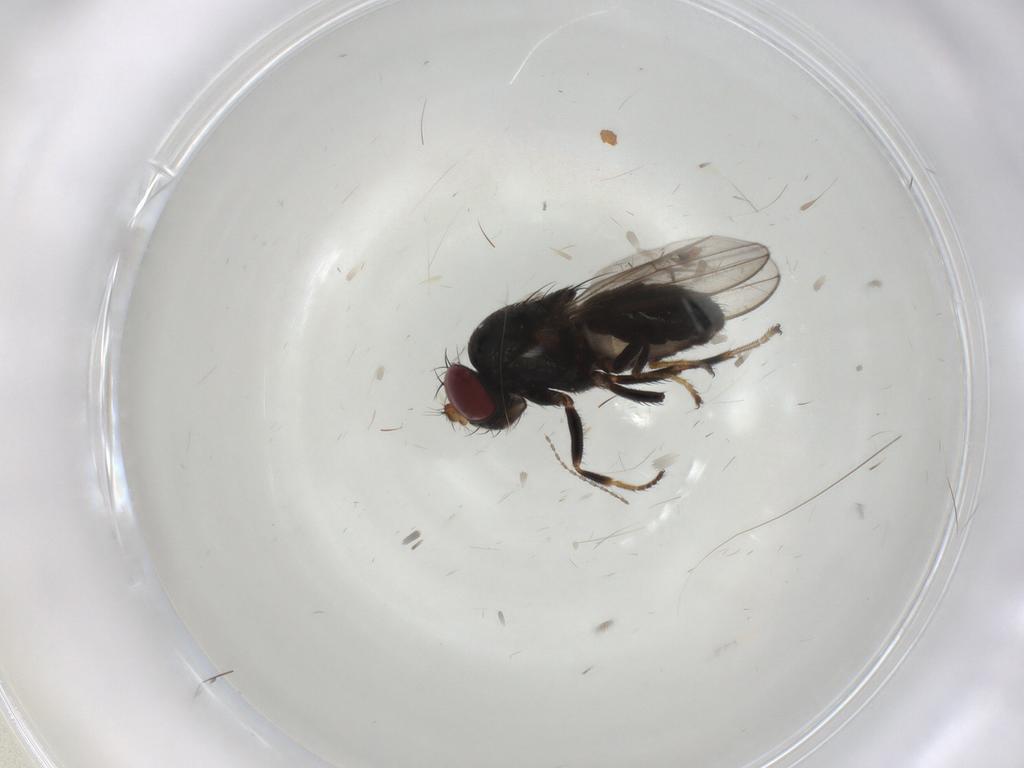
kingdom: Animalia
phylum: Arthropoda
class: Insecta
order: Diptera
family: Ephydridae
